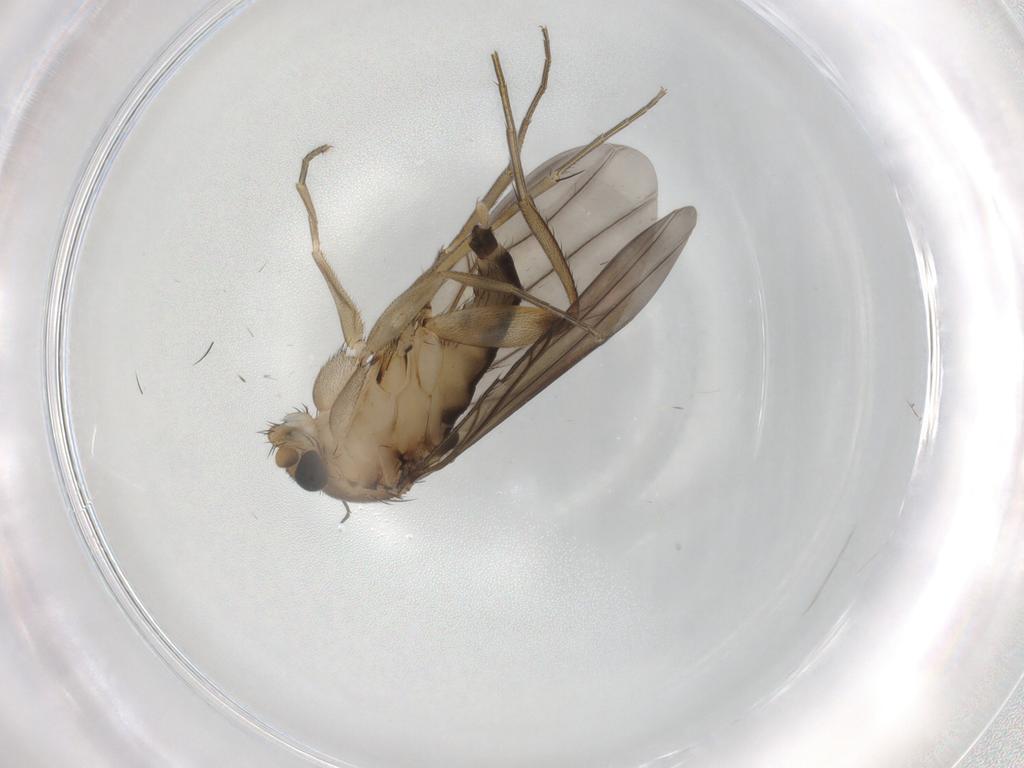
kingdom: Animalia
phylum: Arthropoda
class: Insecta
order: Diptera
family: Phoridae
